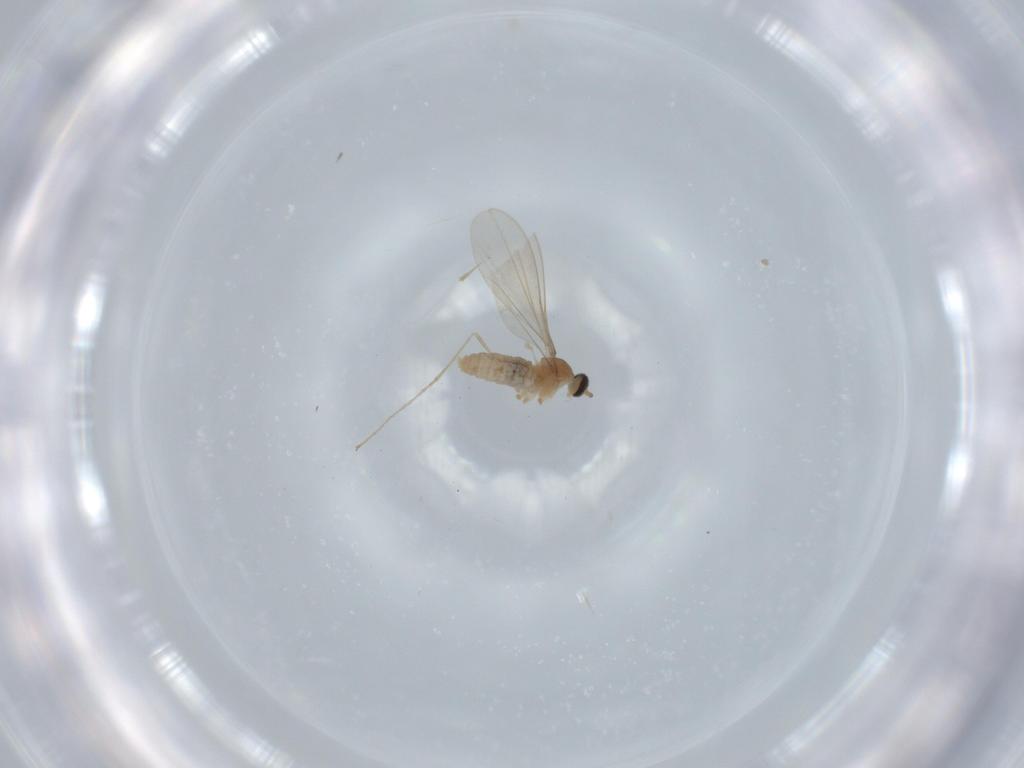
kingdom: Animalia
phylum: Arthropoda
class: Insecta
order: Diptera
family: Cecidomyiidae
